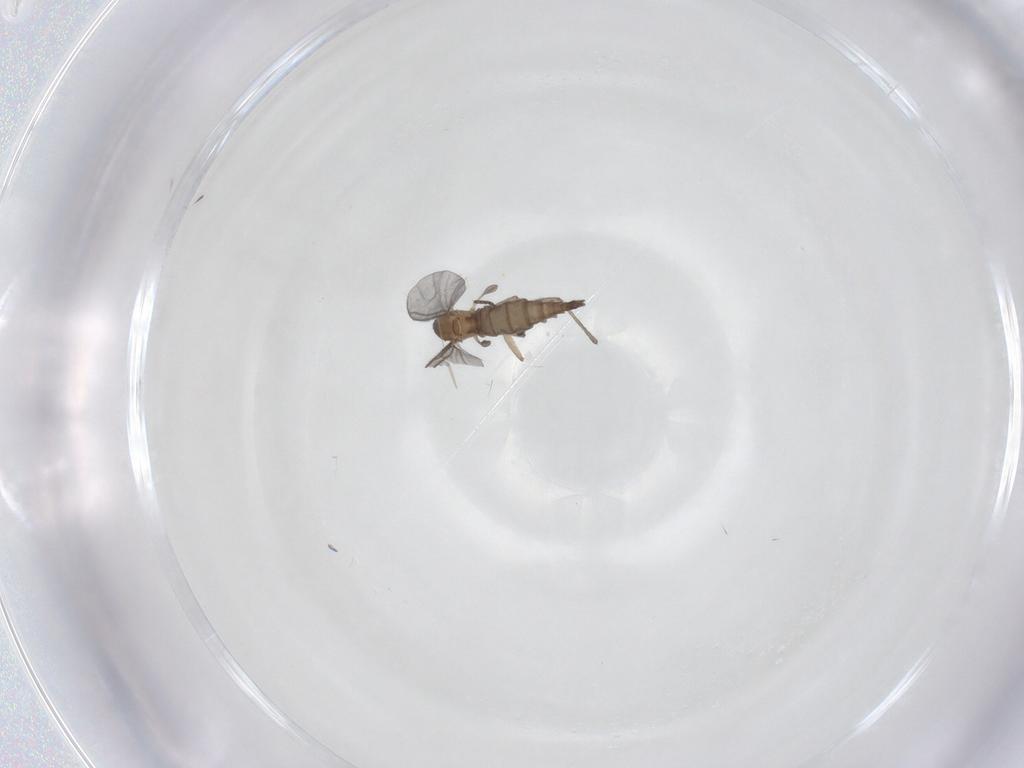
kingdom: Animalia
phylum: Arthropoda
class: Insecta
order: Diptera
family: Sciaridae
